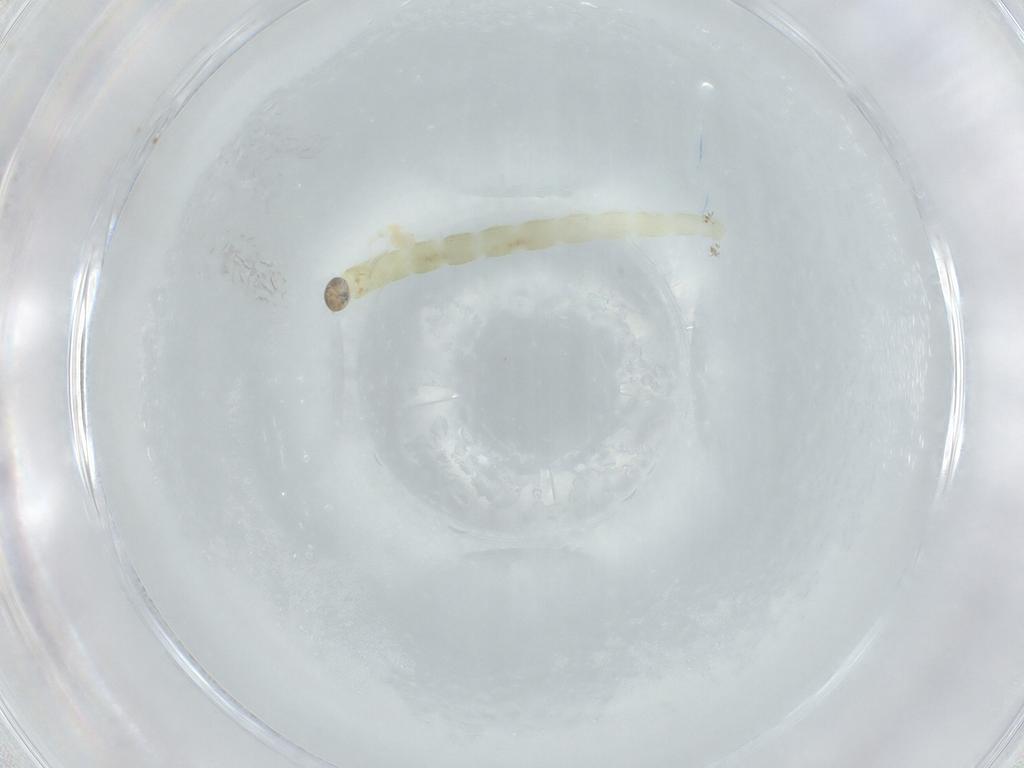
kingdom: Animalia
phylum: Arthropoda
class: Insecta
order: Diptera
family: Chironomidae
